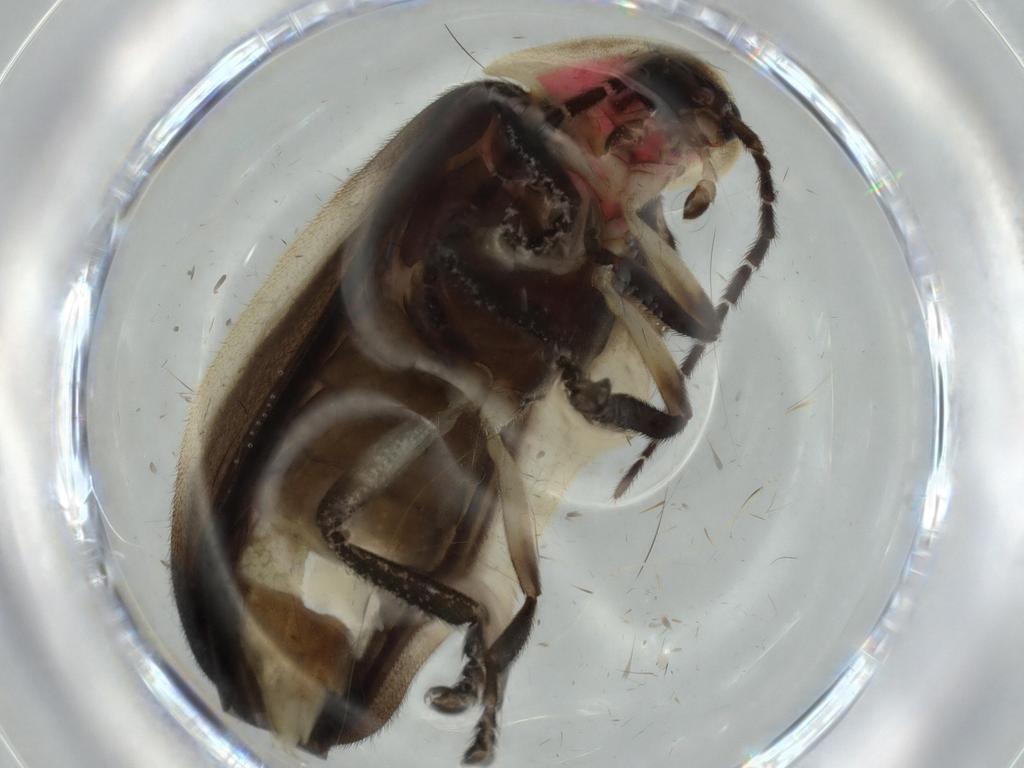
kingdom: Animalia
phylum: Arthropoda
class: Insecta
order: Coleoptera
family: Lampyridae
